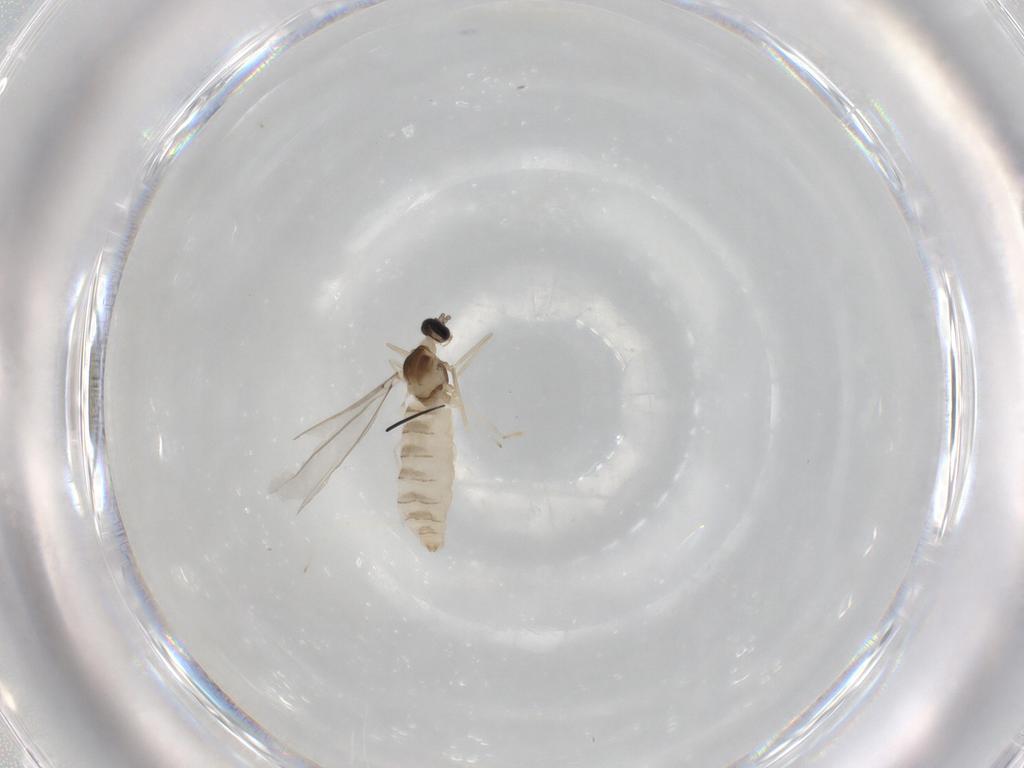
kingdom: Animalia
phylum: Arthropoda
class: Insecta
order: Diptera
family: Cecidomyiidae
